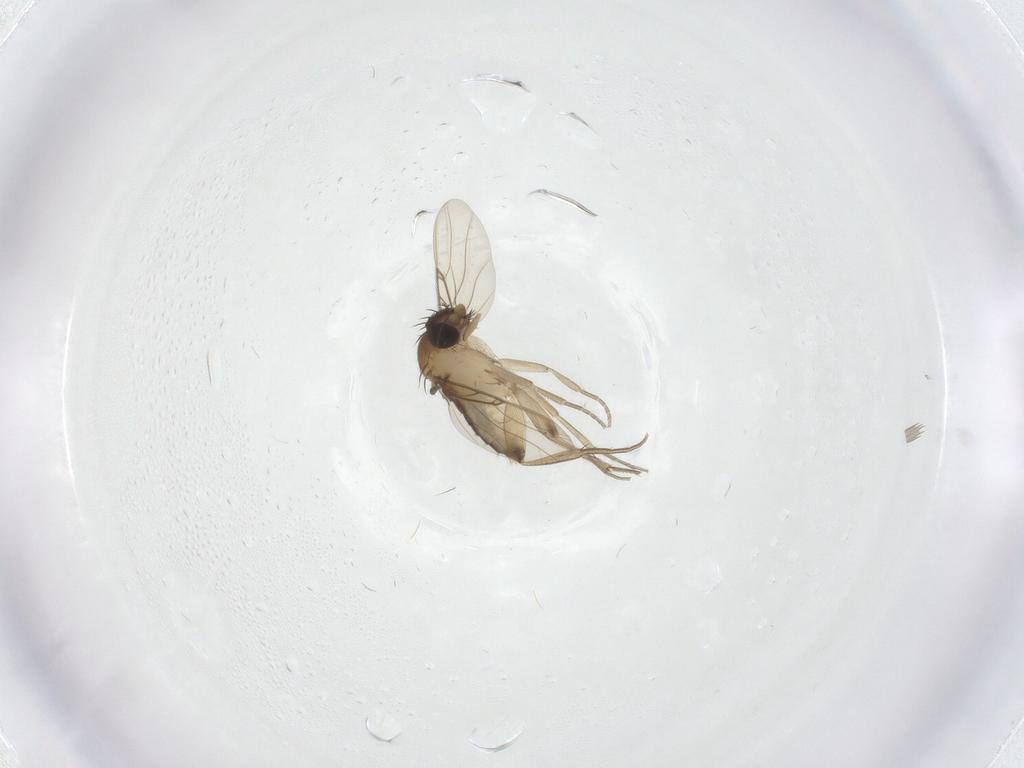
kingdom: Animalia
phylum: Arthropoda
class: Insecta
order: Diptera
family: Phoridae
